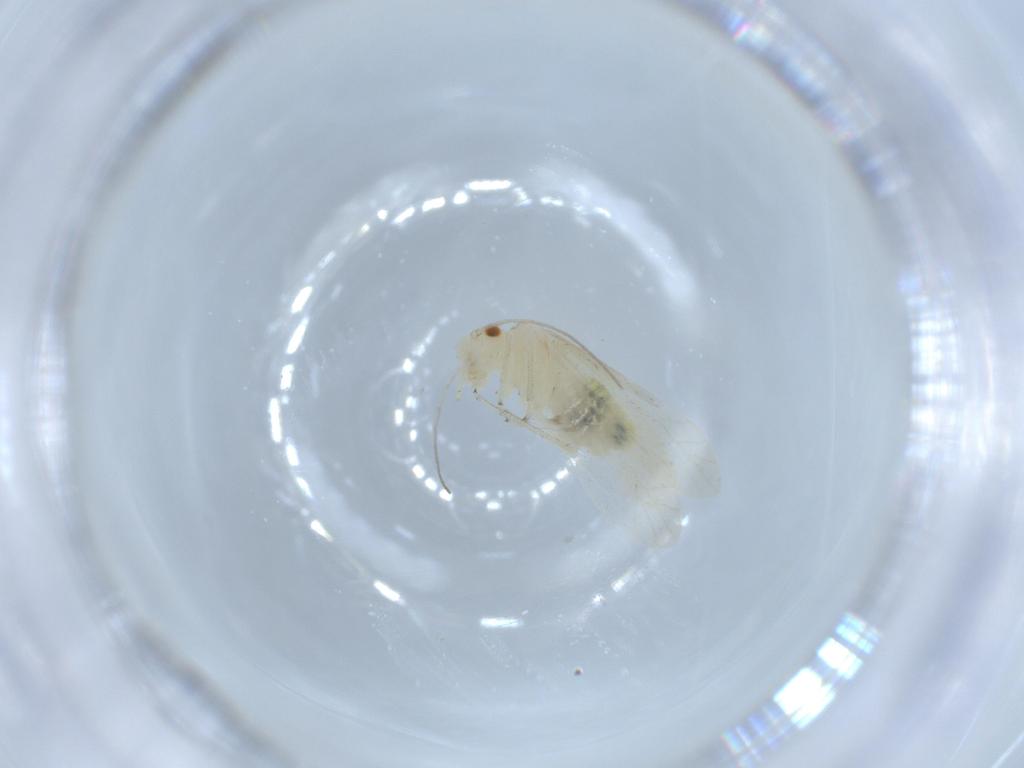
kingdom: Animalia
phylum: Arthropoda
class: Insecta
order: Psocodea
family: Caeciliusidae
